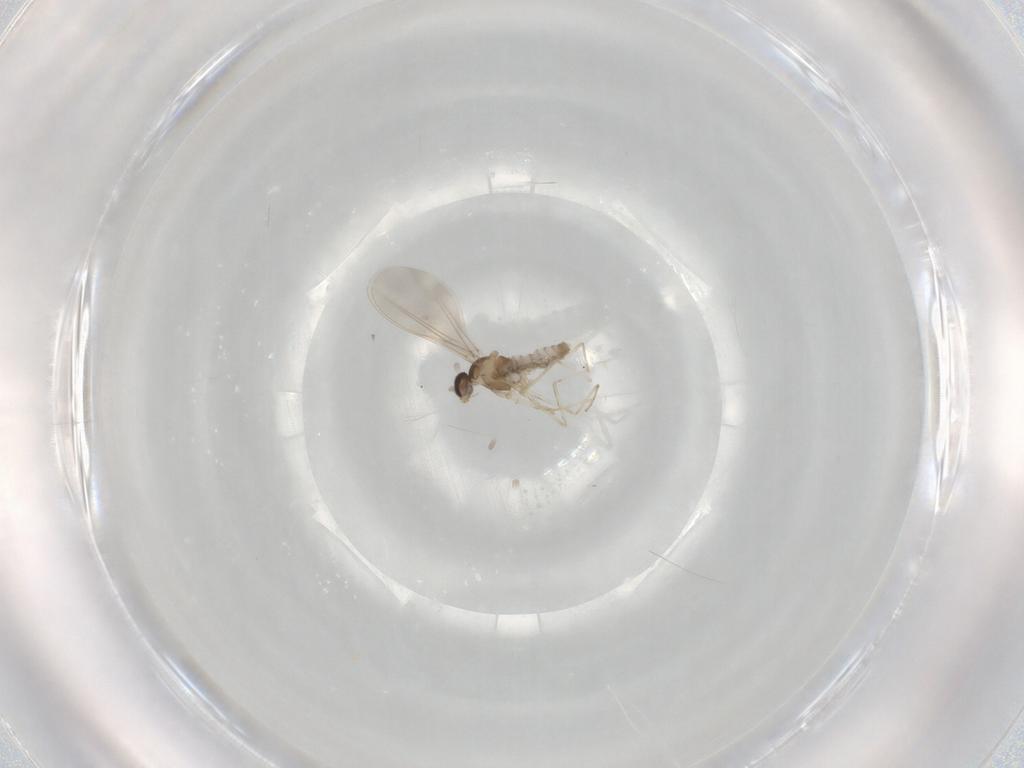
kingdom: Animalia
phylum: Arthropoda
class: Insecta
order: Diptera
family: Cecidomyiidae
